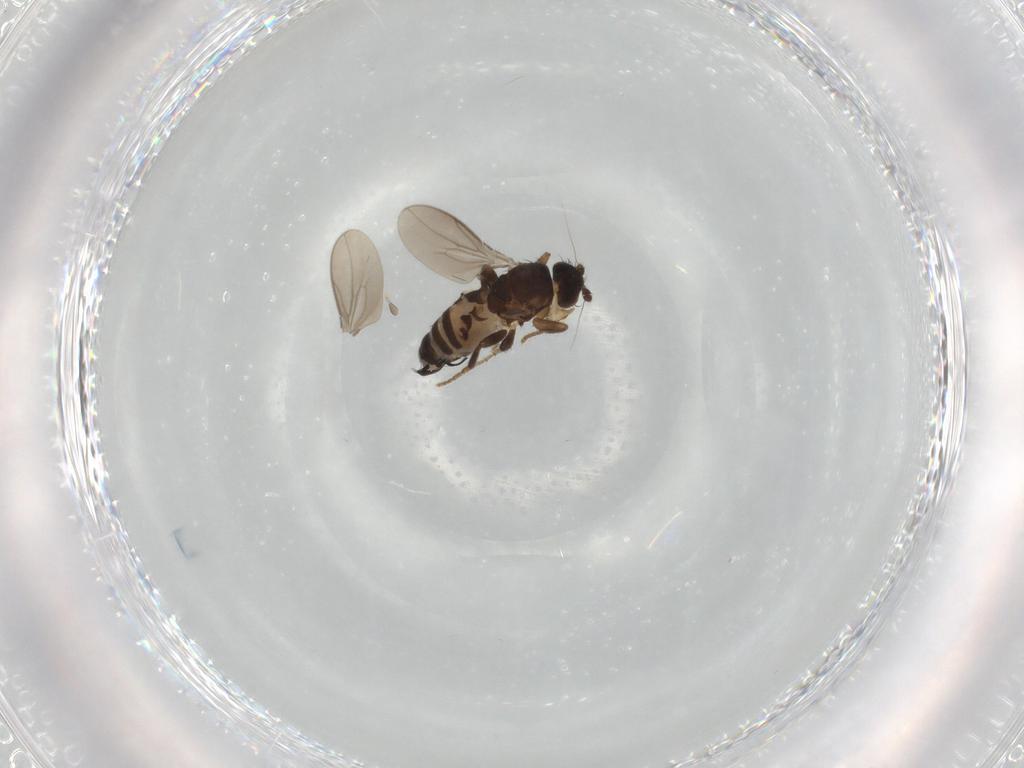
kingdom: Animalia
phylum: Arthropoda
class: Insecta
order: Diptera
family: Sphaeroceridae
